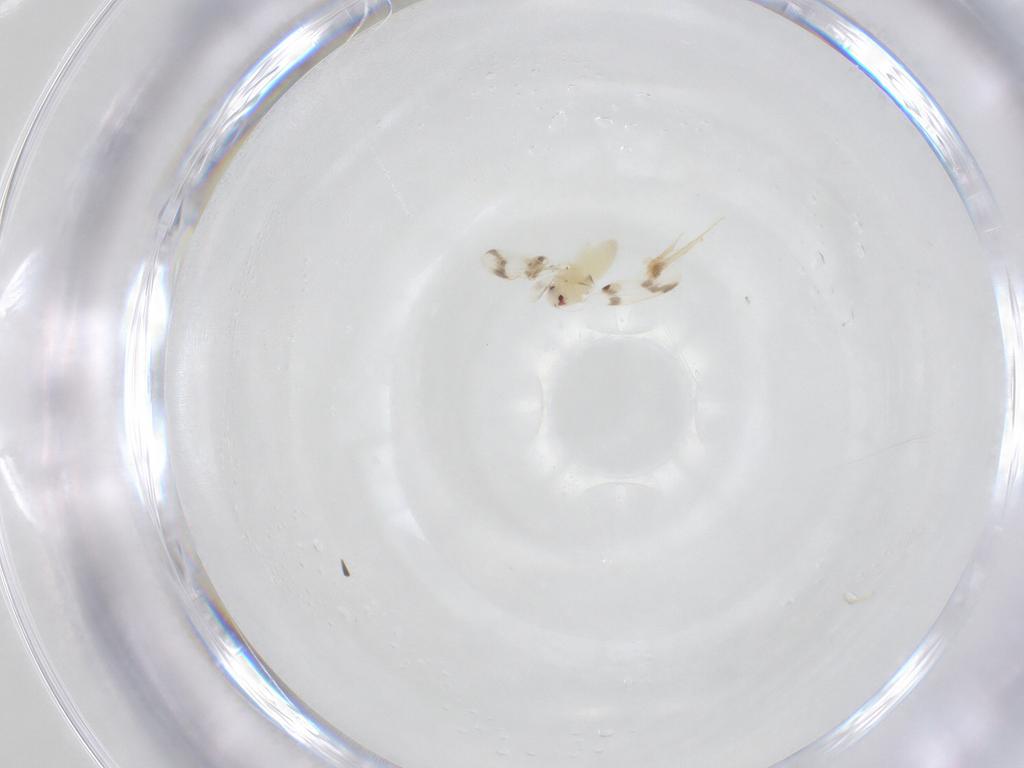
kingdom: Animalia
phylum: Arthropoda
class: Insecta
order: Hemiptera
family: Aleyrodidae
